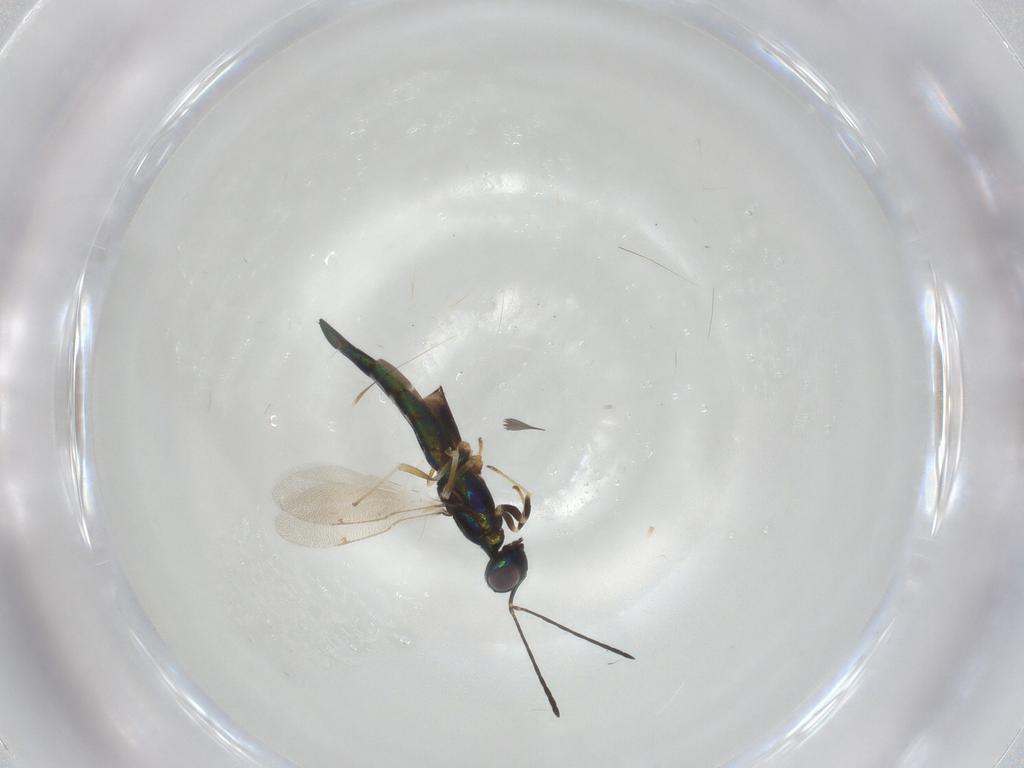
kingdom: Animalia
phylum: Arthropoda
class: Insecta
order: Hymenoptera
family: Eulophidae
